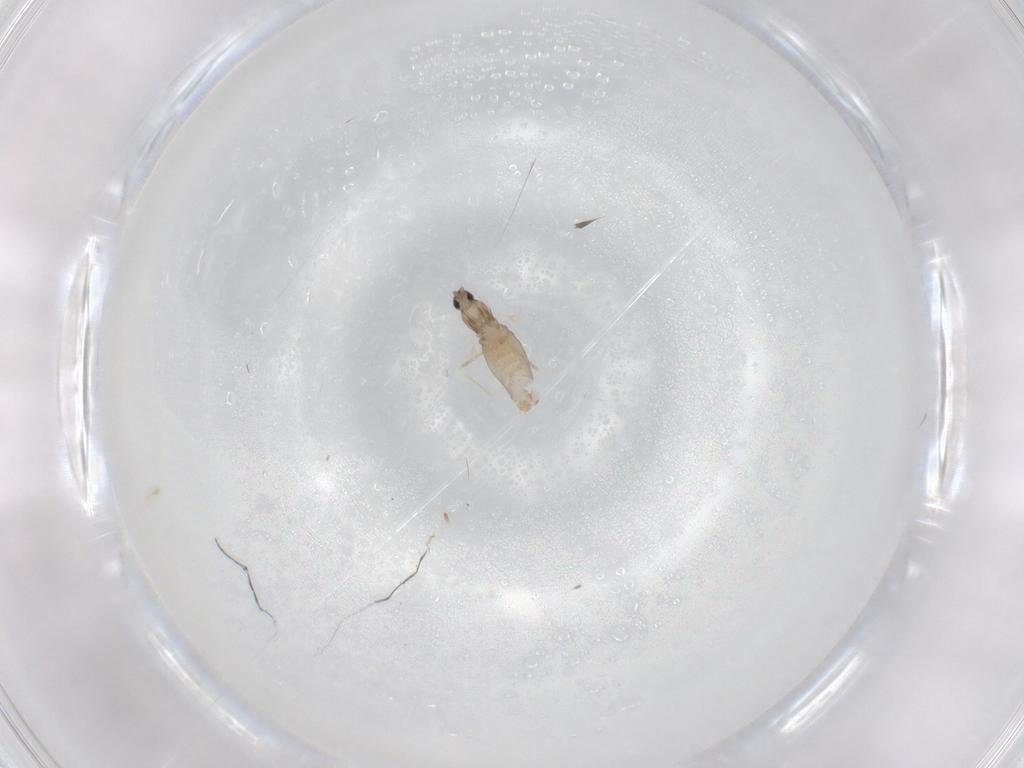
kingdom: Animalia
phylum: Arthropoda
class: Insecta
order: Diptera
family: Cecidomyiidae
